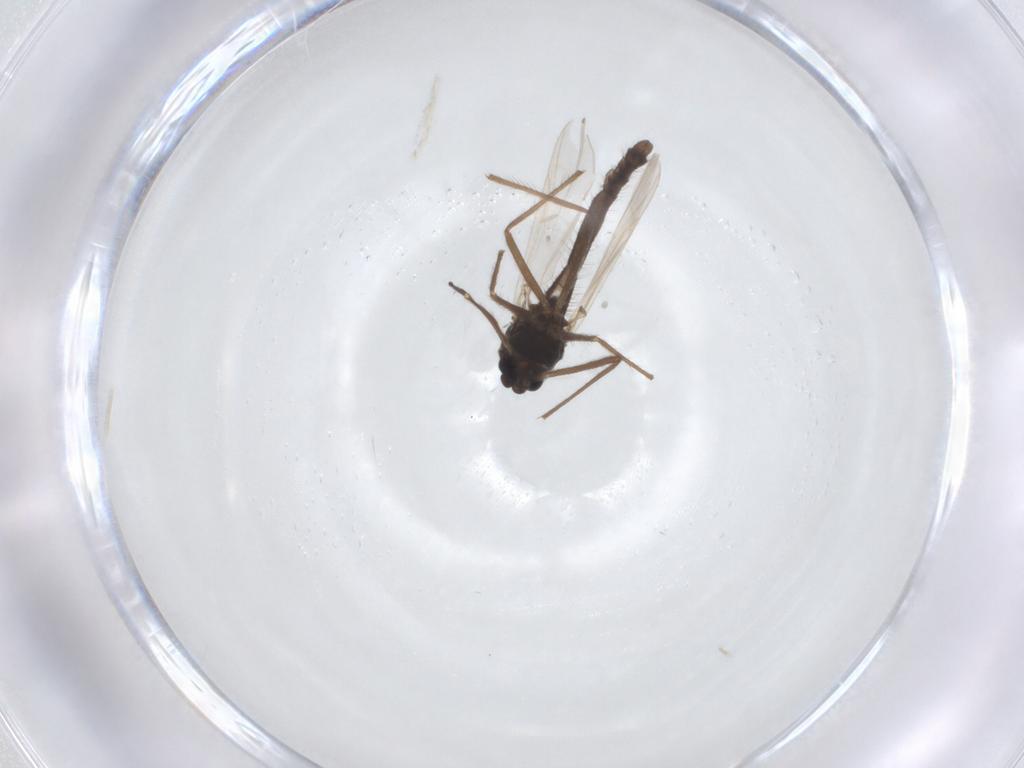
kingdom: Animalia
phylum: Arthropoda
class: Insecta
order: Diptera
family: Chironomidae
